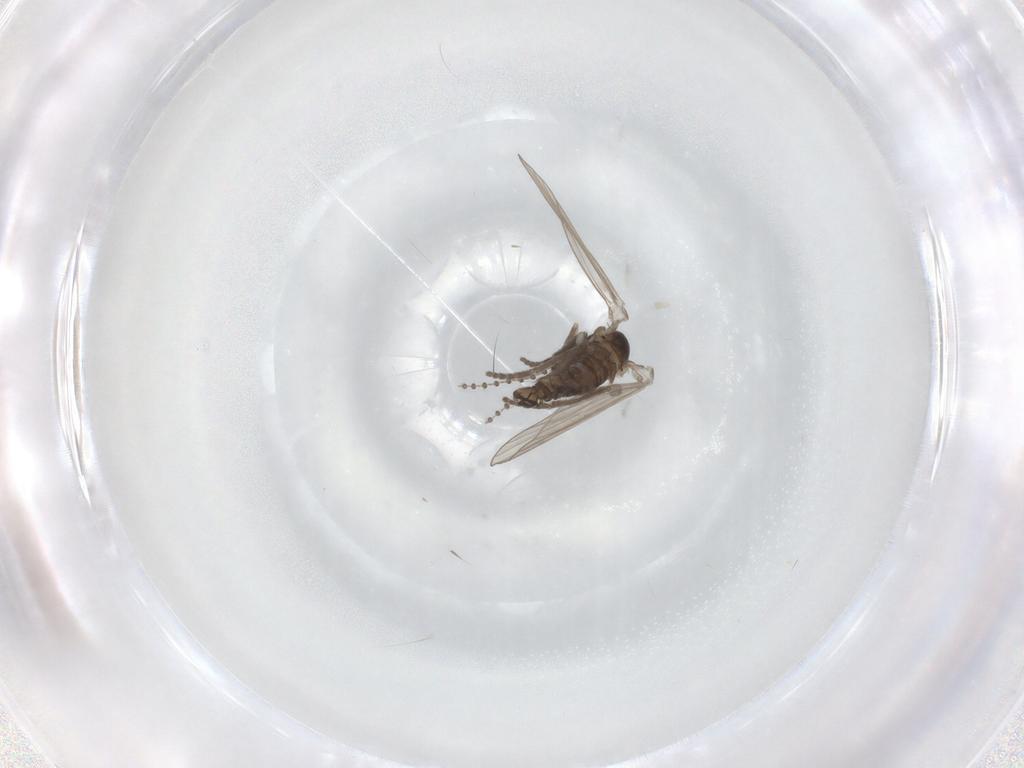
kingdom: Animalia
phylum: Arthropoda
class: Insecta
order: Diptera
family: Psychodidae
